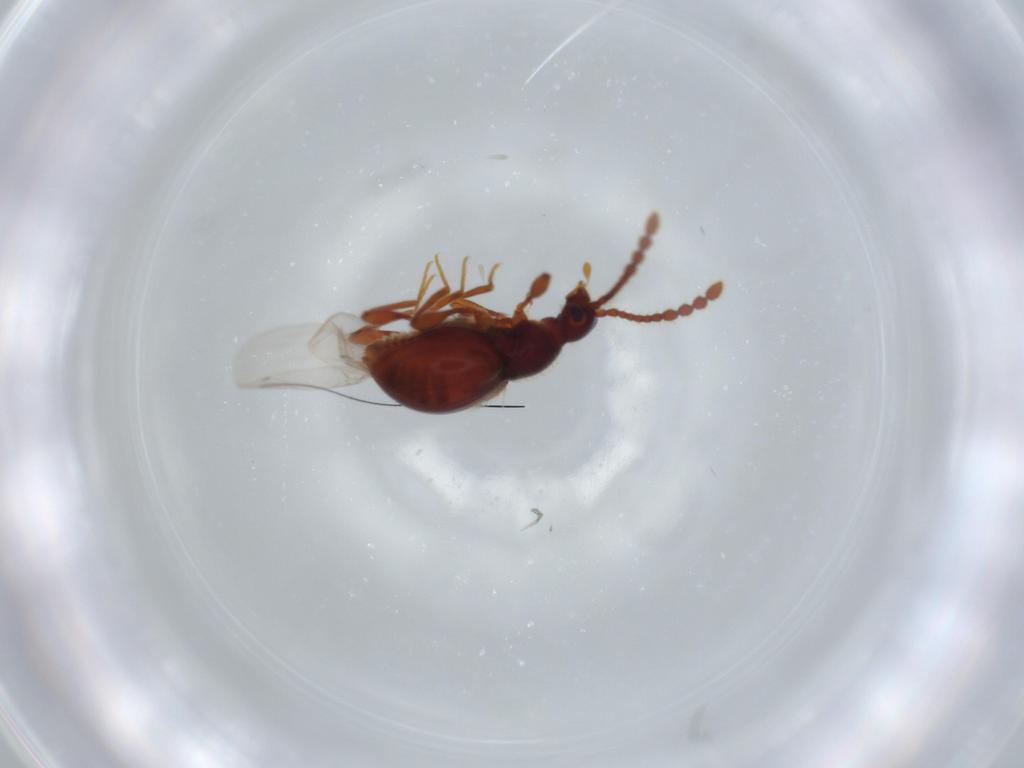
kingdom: Animalia
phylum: Arthropoda
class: Insecta
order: Coleoptera
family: Staphylinidae
